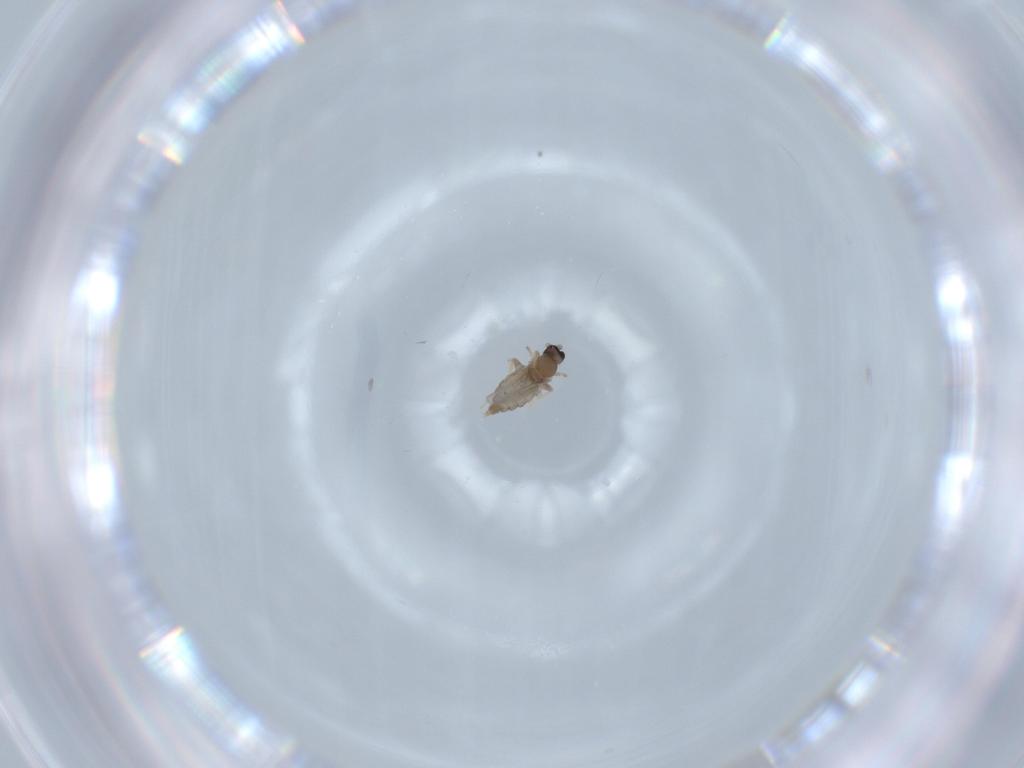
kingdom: Animalia
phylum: Arthropoda
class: Insecta
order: Diptera
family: Cecidomyiidae
